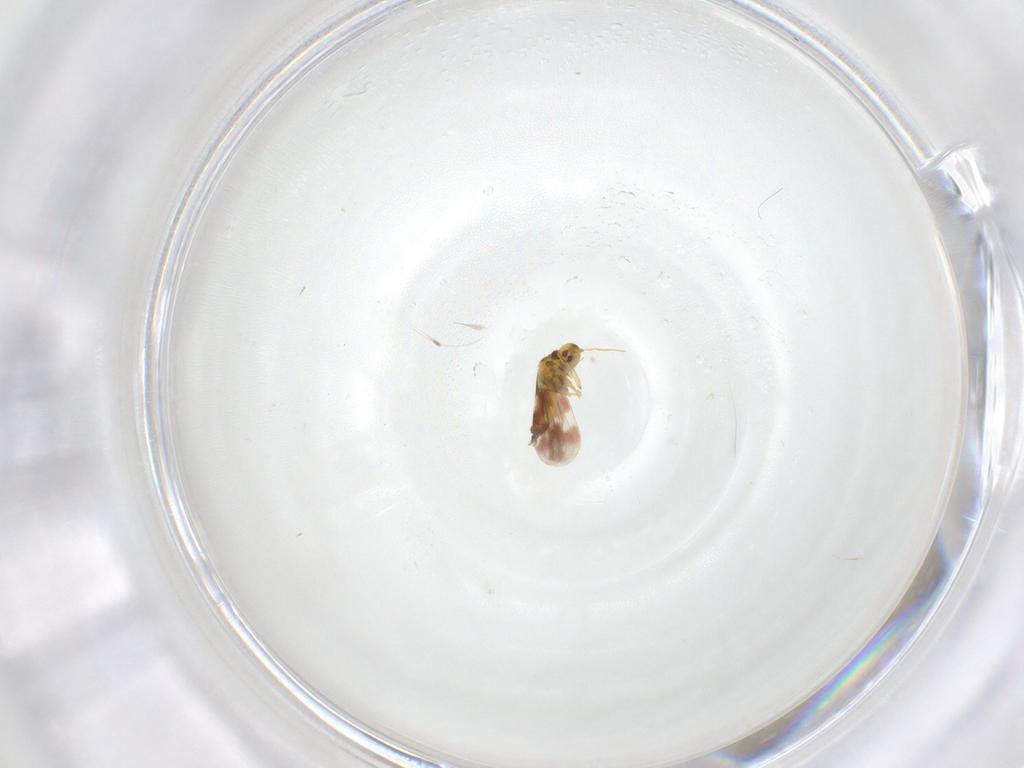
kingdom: Animalia
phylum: Arthropoda
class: Insecta
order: Hemiptera
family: Aleyrodidae
